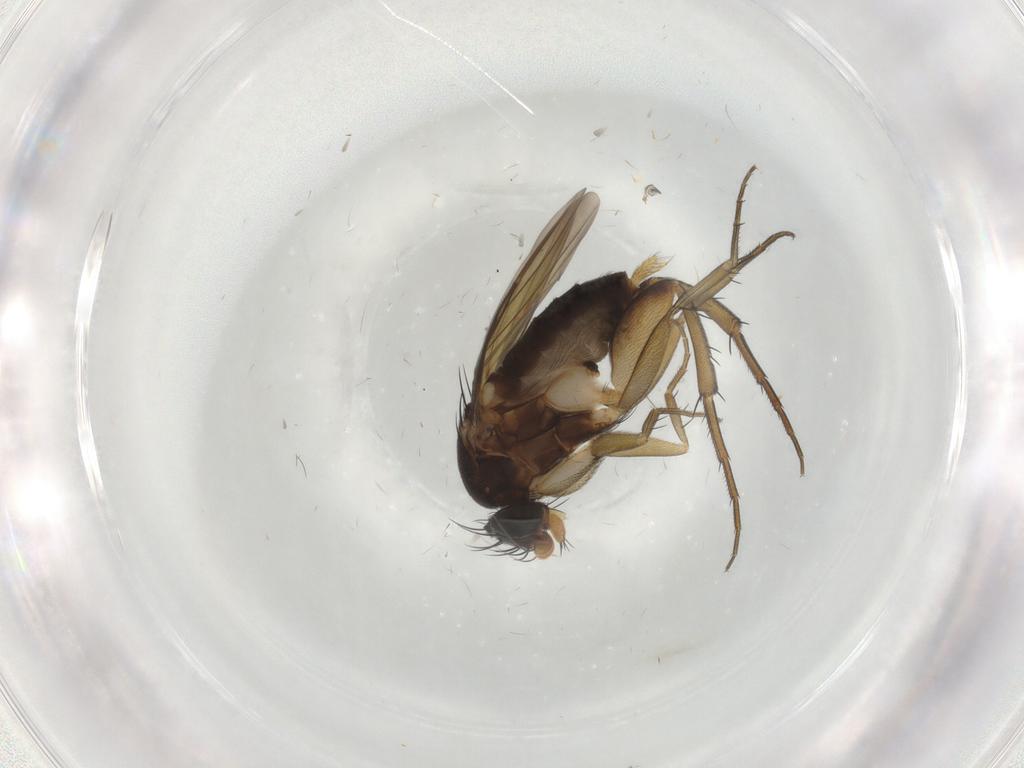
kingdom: Animalia
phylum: Arthropoda
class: Insecta
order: Diptera
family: Phoridae
